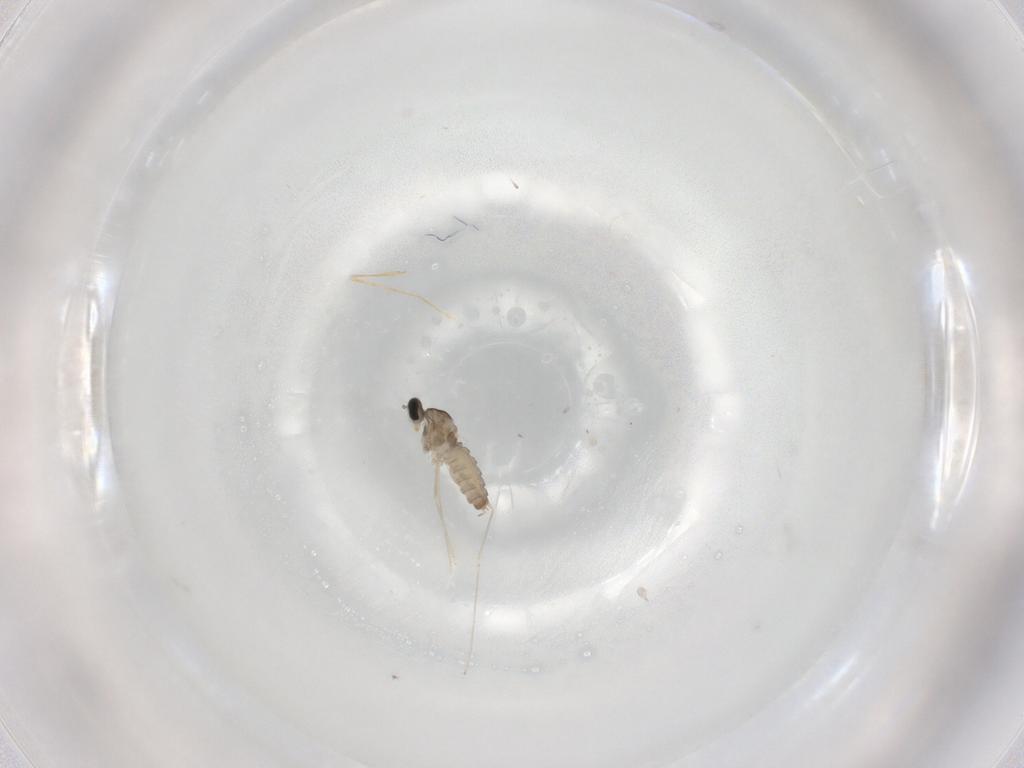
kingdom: Animalia
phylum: Arthropoda
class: Insecta
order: Diptera
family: Cecidomyiidae
